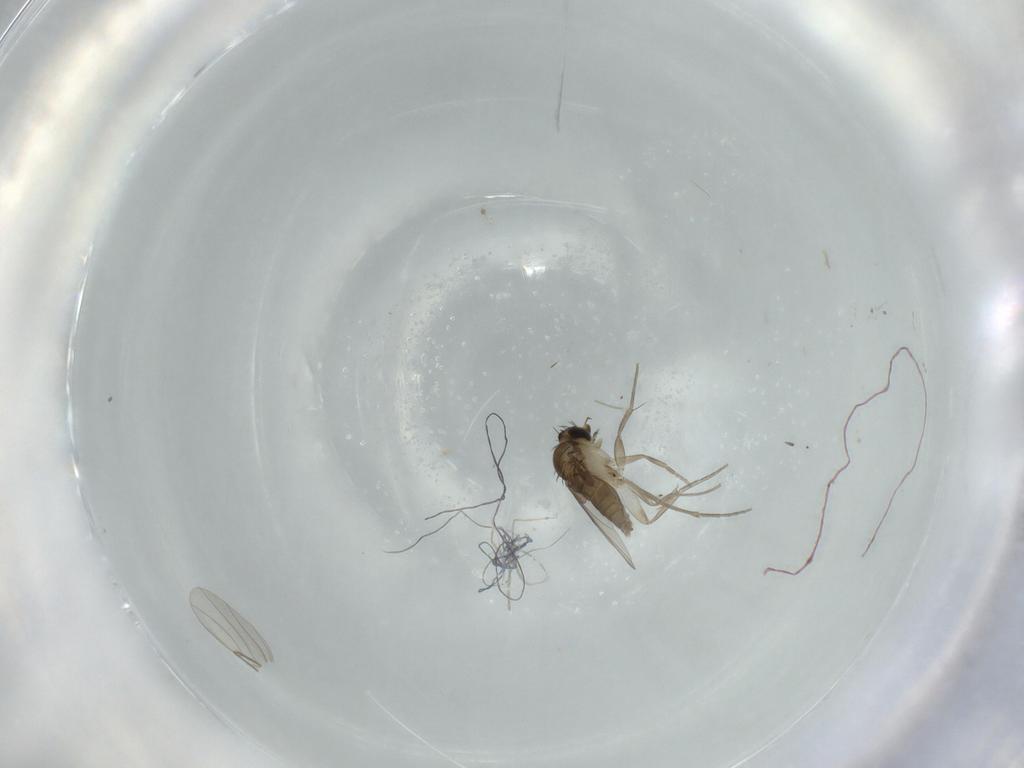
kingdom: Animalia
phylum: Arthropoda
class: Insecta
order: Diptera
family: Phoridae
